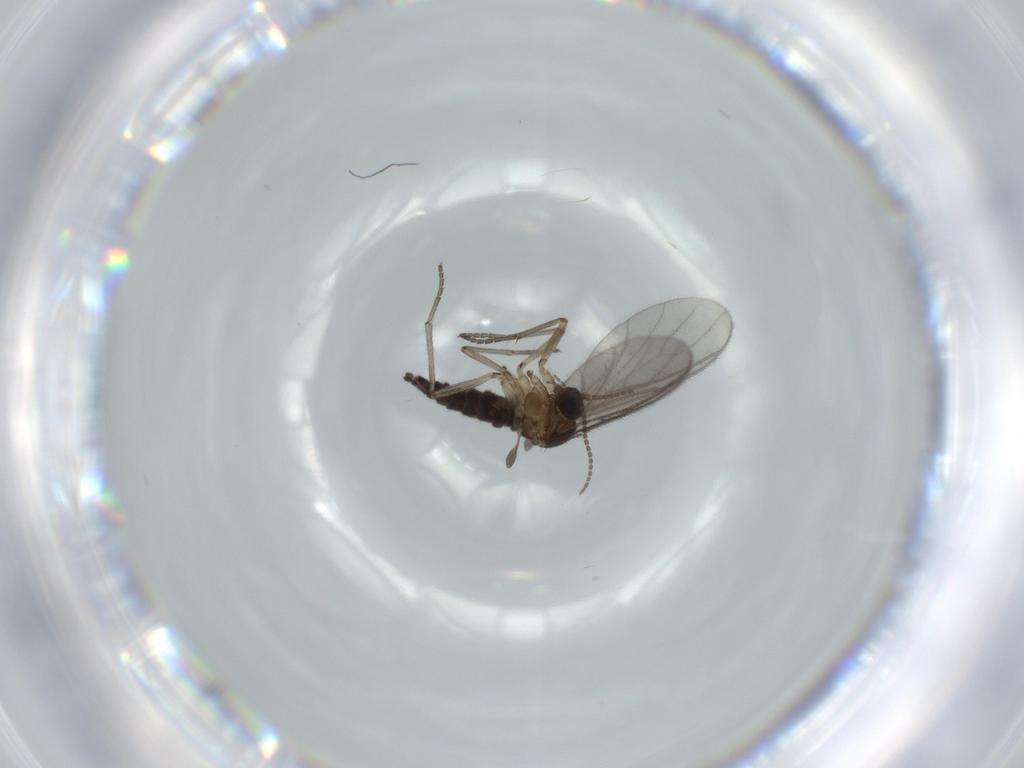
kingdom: Animalia
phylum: Arthropoda
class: Insecta
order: Diptera
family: Sciaridae
